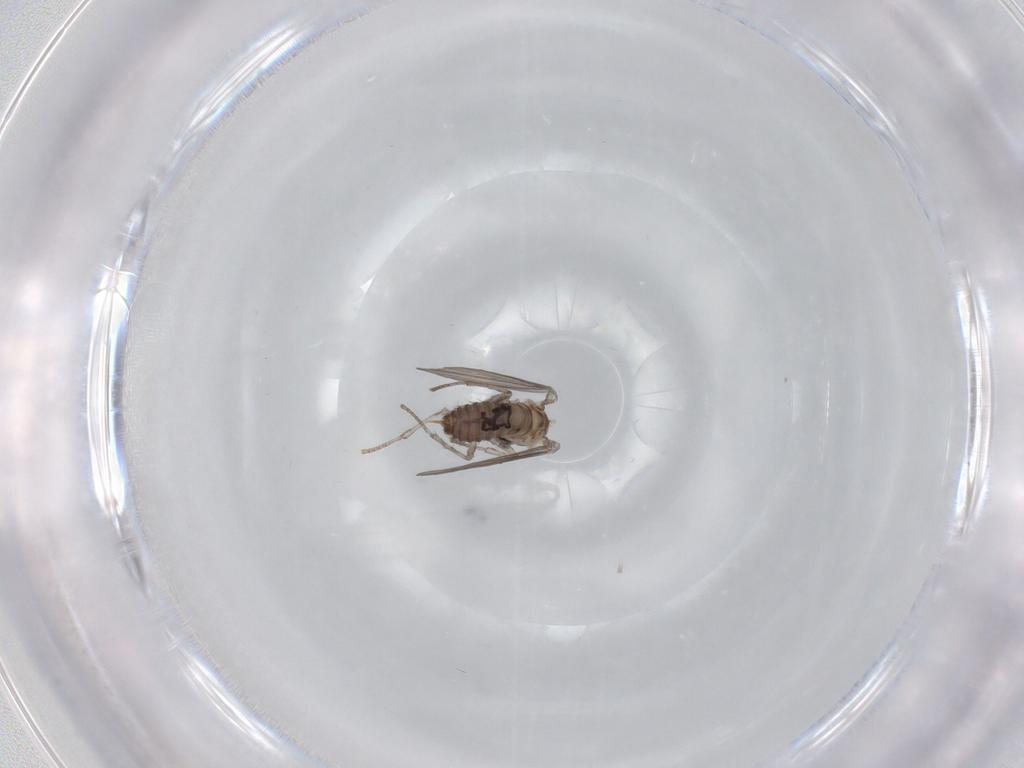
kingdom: Animalia
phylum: Arthropoda
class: Insecta
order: Diptera
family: Psychodidae
